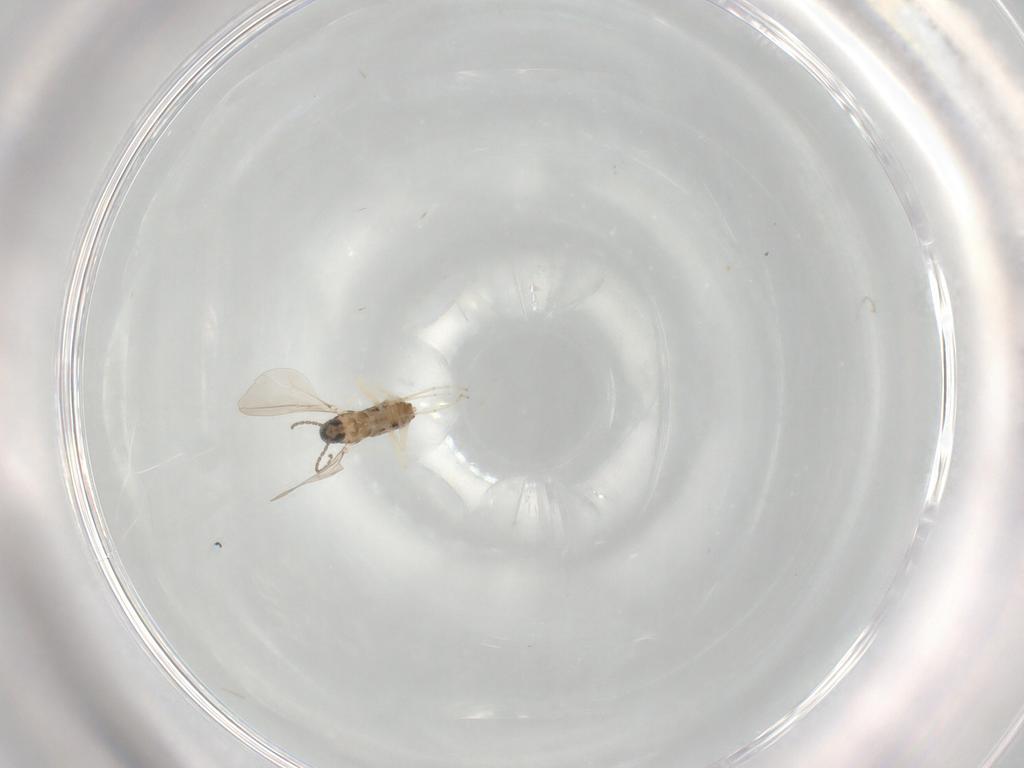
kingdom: Animalia
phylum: Arthropoda
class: Insecta
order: Diptera
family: Cecidomyiidae
